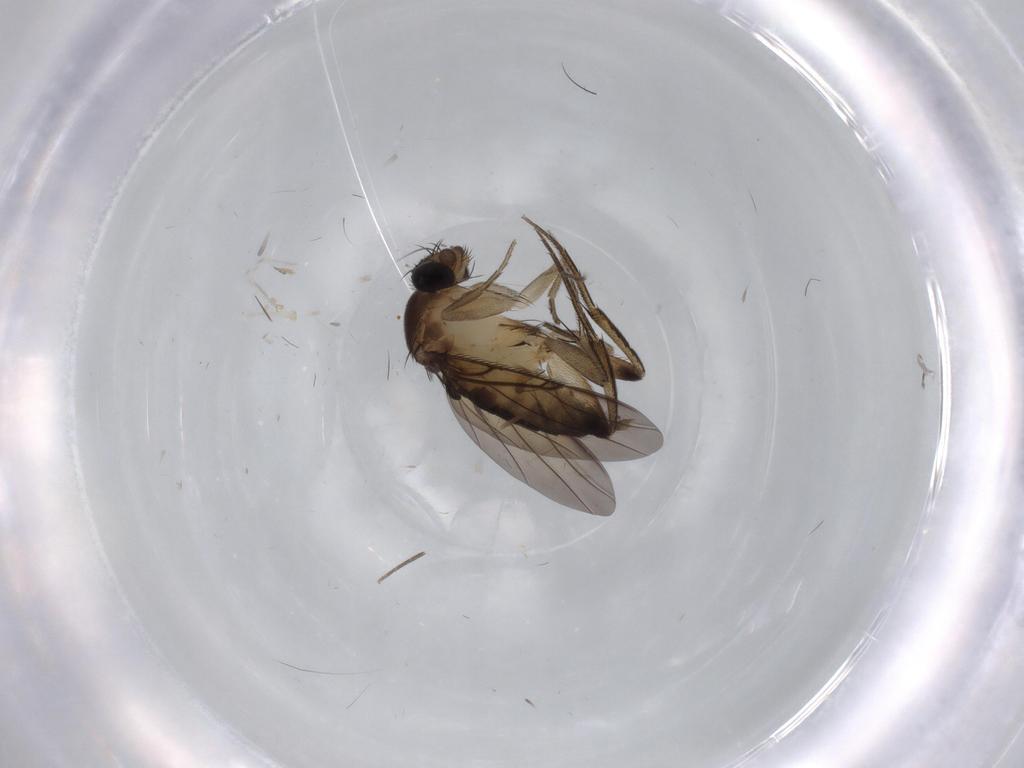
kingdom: Animalia
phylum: Arthropoda
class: Insecta
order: Diptera
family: Phoridae
